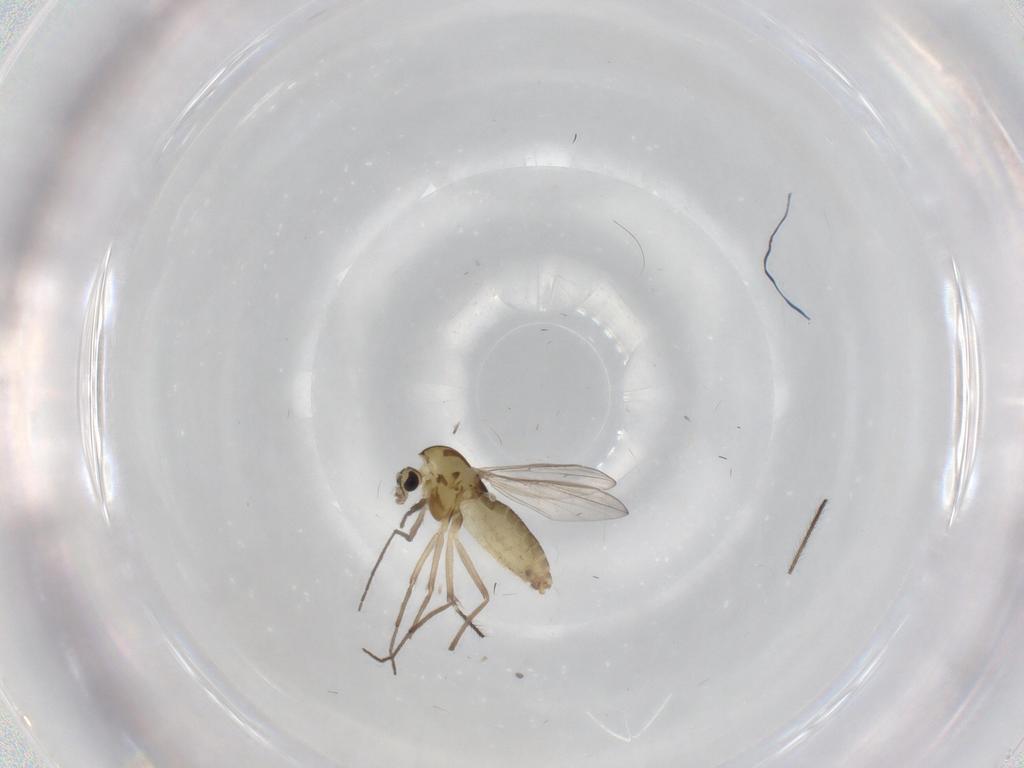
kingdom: Animalia
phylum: Arthropoda
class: Insecta
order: Diptera
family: Chironomidae
